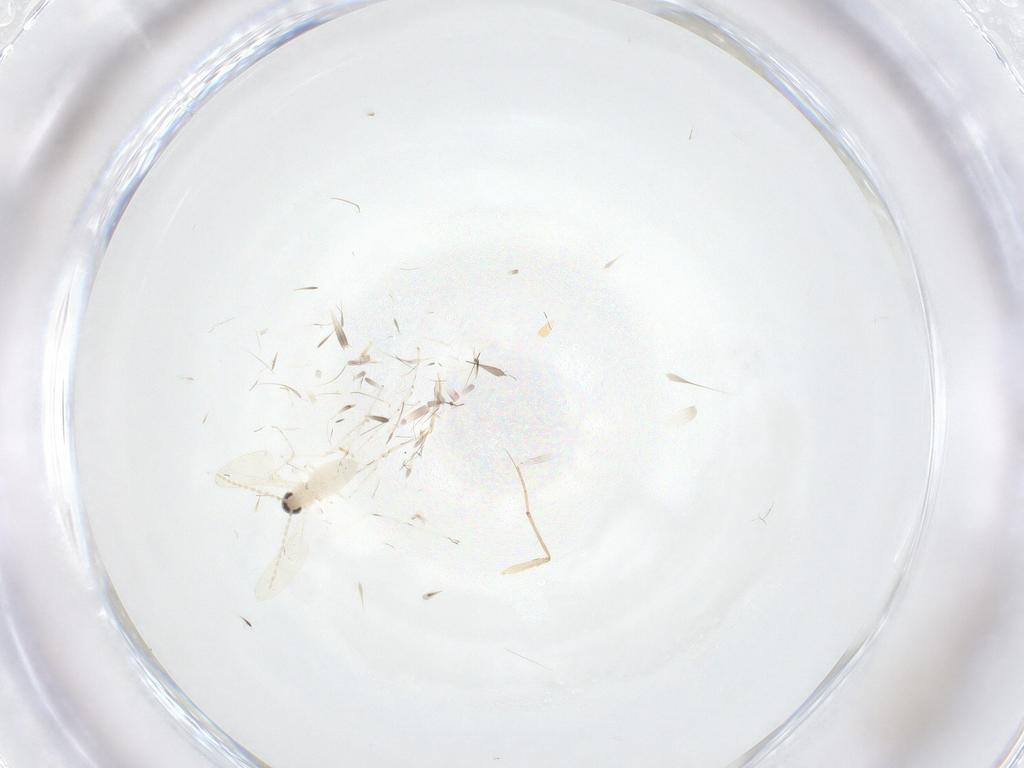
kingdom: Animalia
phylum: Arthropoda
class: Insecta
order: Diptera
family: Cecidomyiidae
